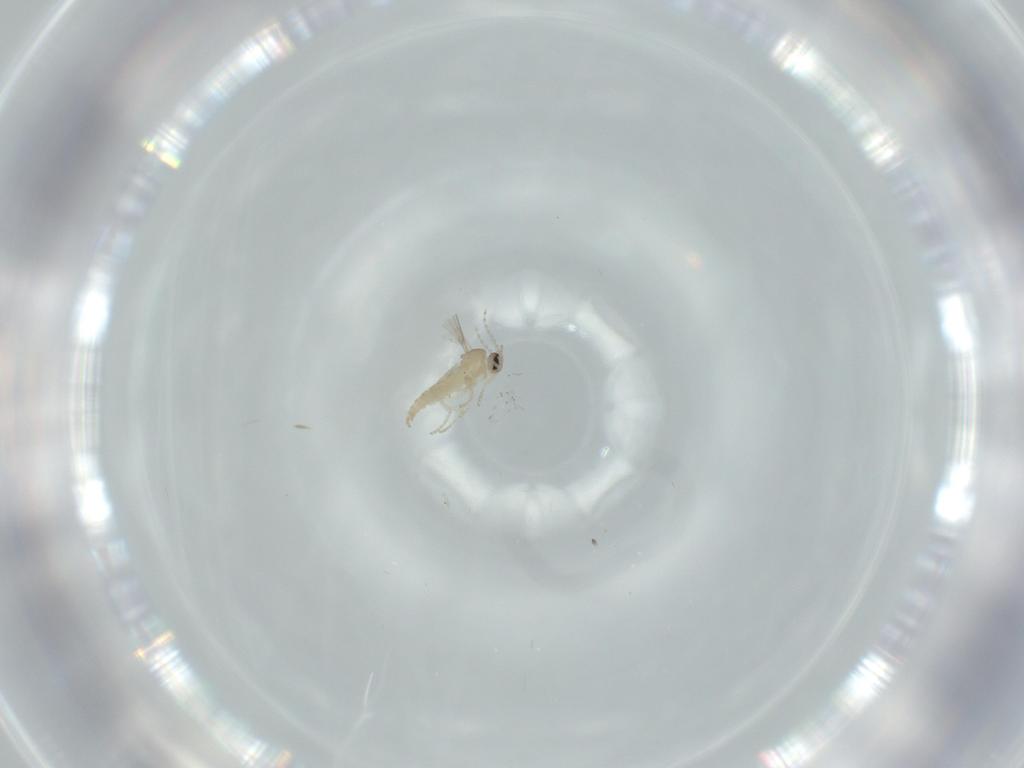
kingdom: Animalia
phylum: Arthropoda
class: Insecta
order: Diptera
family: Cecidomyiidae
